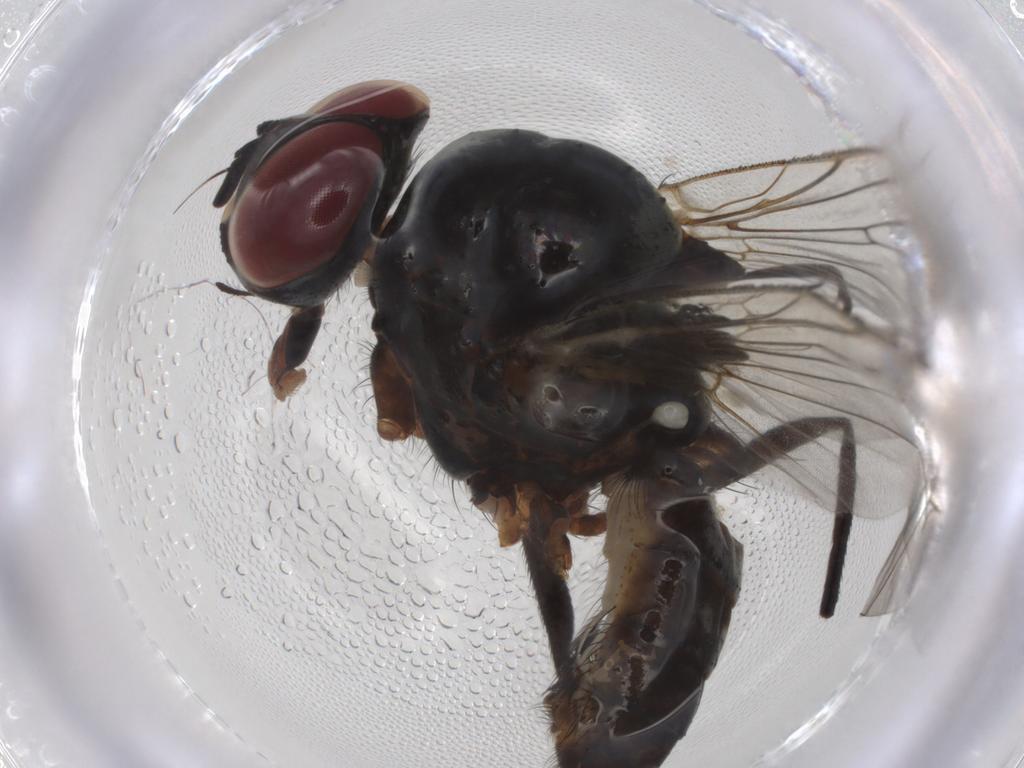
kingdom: Animalia
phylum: Arthropoda
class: Insecta
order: Diptera
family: Anthomyiidae
